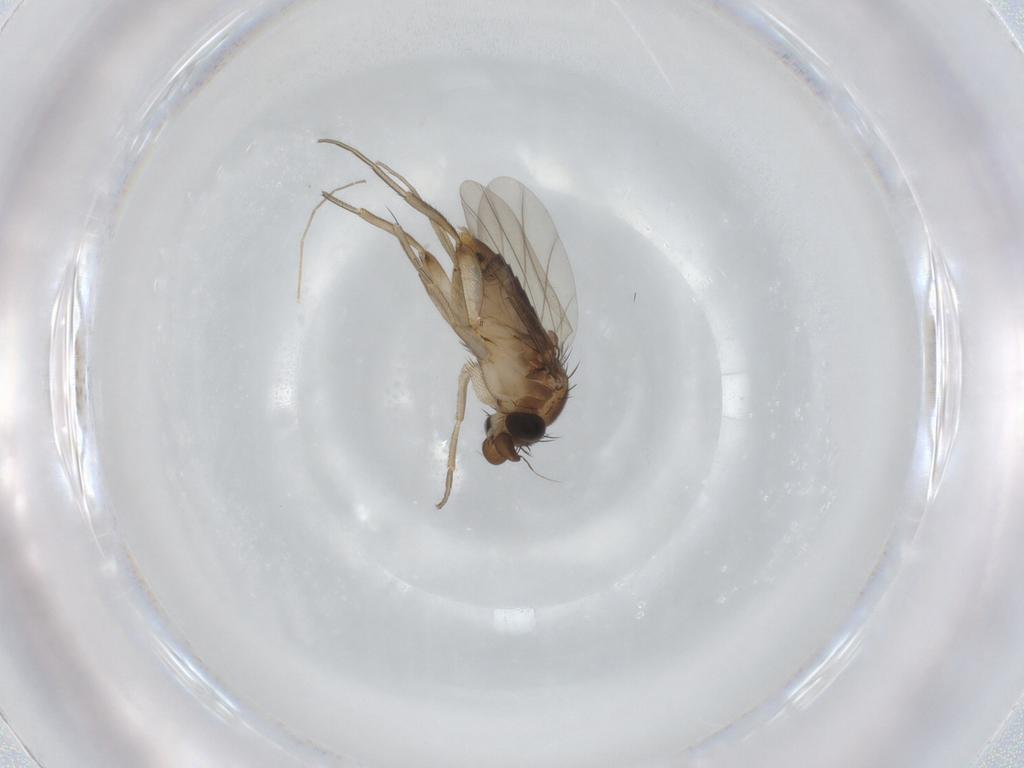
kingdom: Animalia
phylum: Arthropoda
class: Insecta
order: Diptera
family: Phoridae
